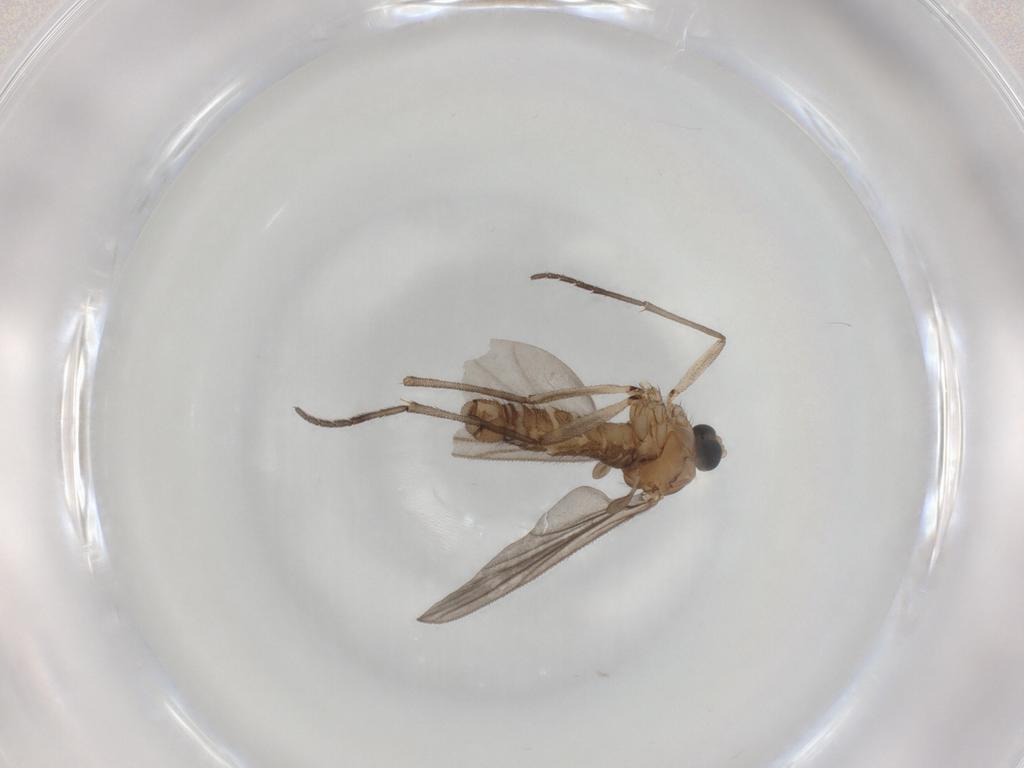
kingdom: Animalia
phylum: Arthropoda
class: Insecta
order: Diptera
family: Sciaridae
